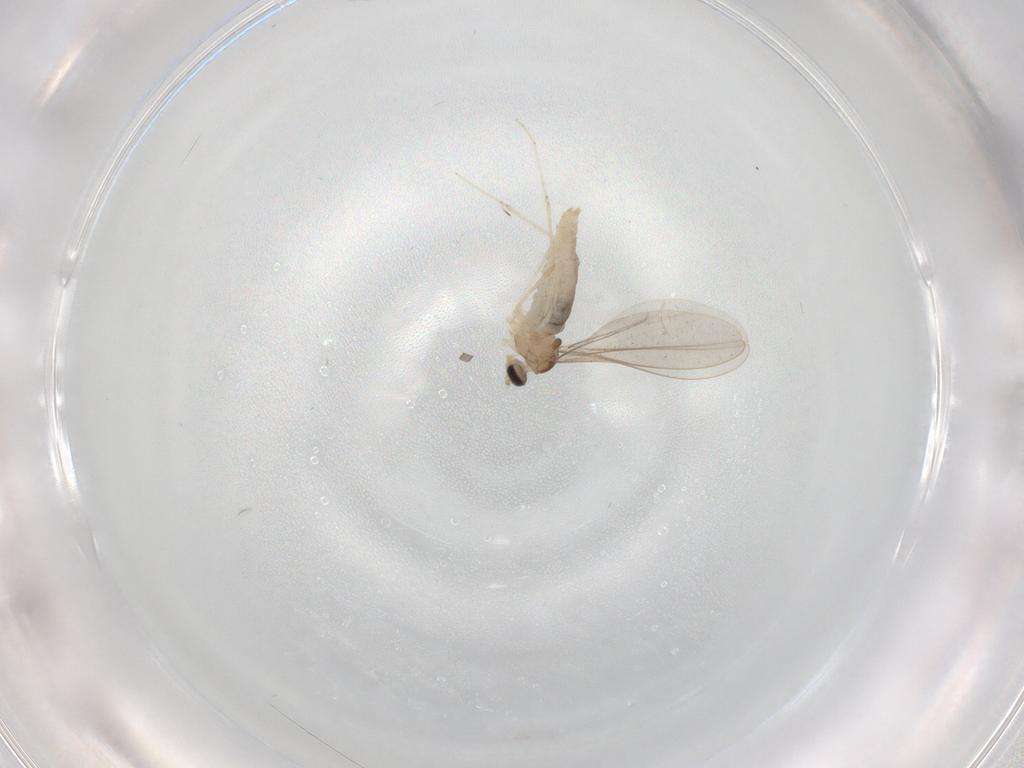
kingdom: Animalia
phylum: Arthropoda
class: Insecta
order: Diptera
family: Cecidomyiidae
